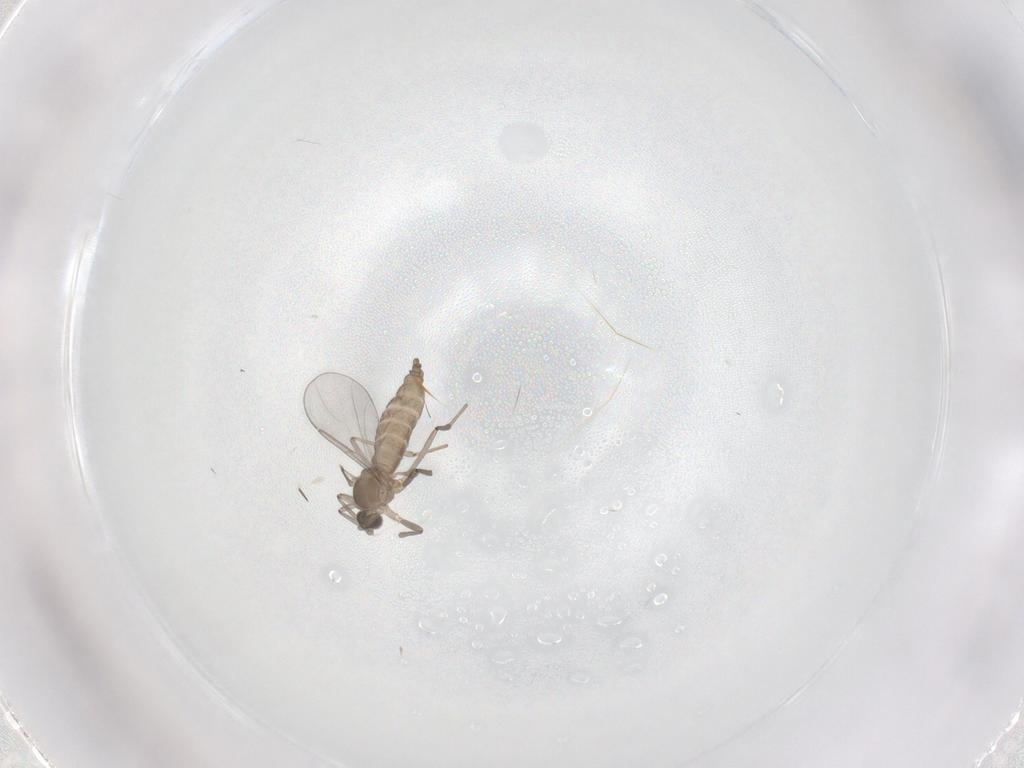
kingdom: Animalia
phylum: Arthropoda
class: Insecta
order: Diptera
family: Cecidomyiidae
